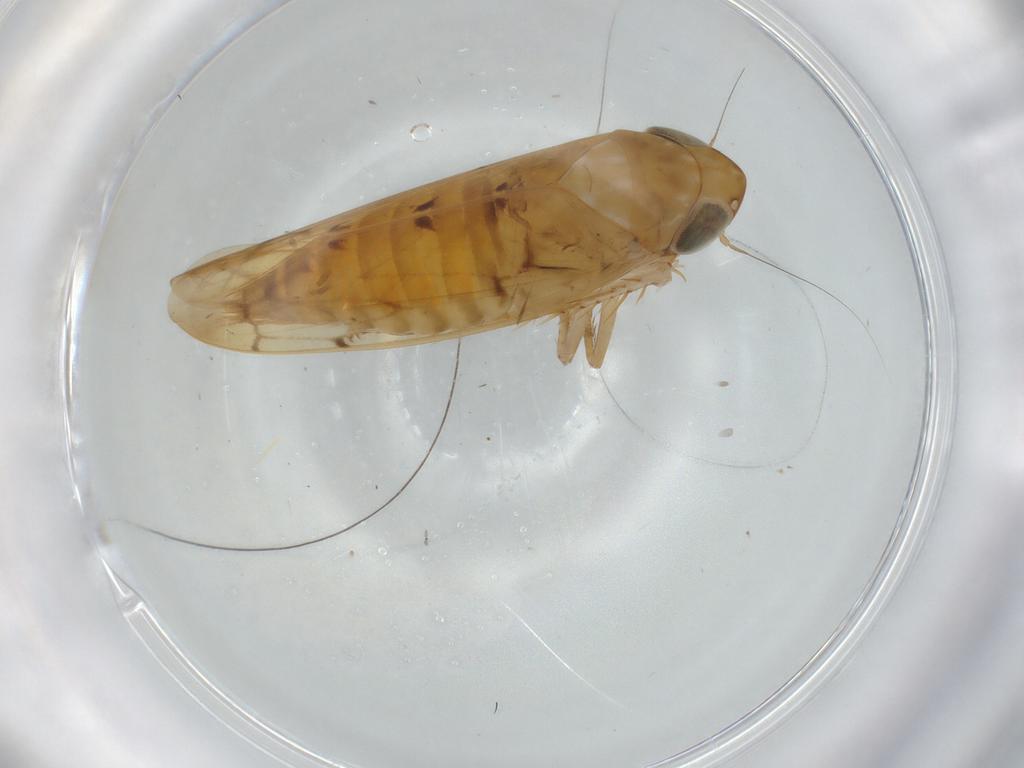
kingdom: Animalia
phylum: Arthropoda
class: Insecta
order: Hemiptera
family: Cicadellidae
